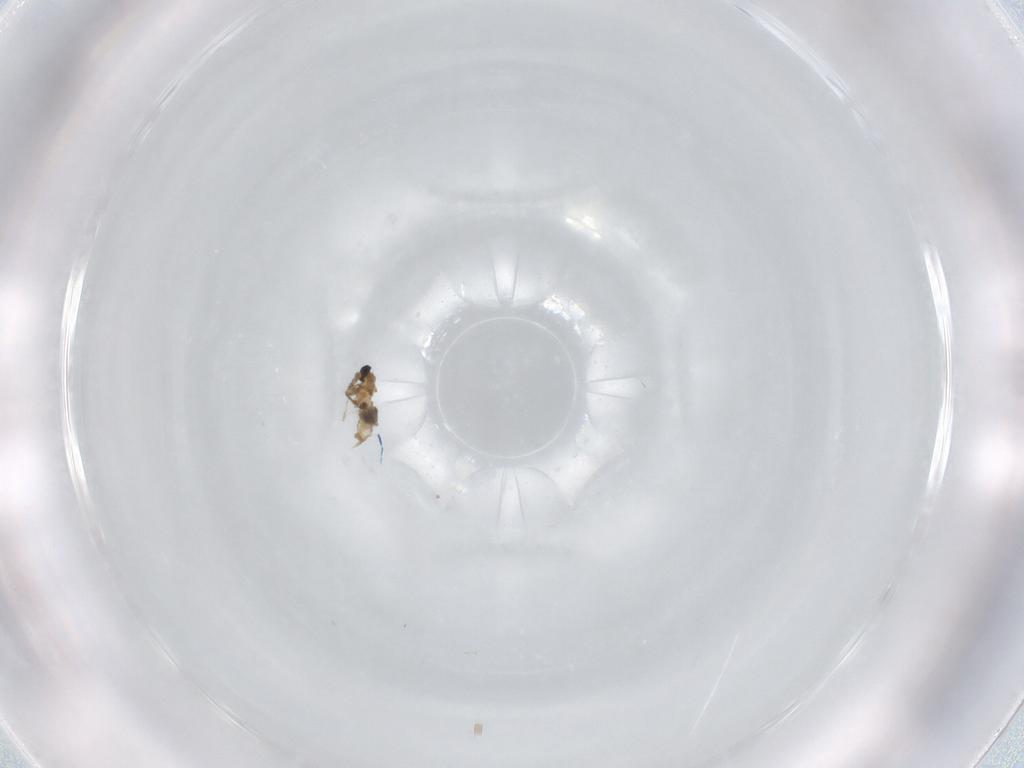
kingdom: Animalia
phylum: Arthropoda
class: Insecta
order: Diptera
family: Cecidomyiidae
